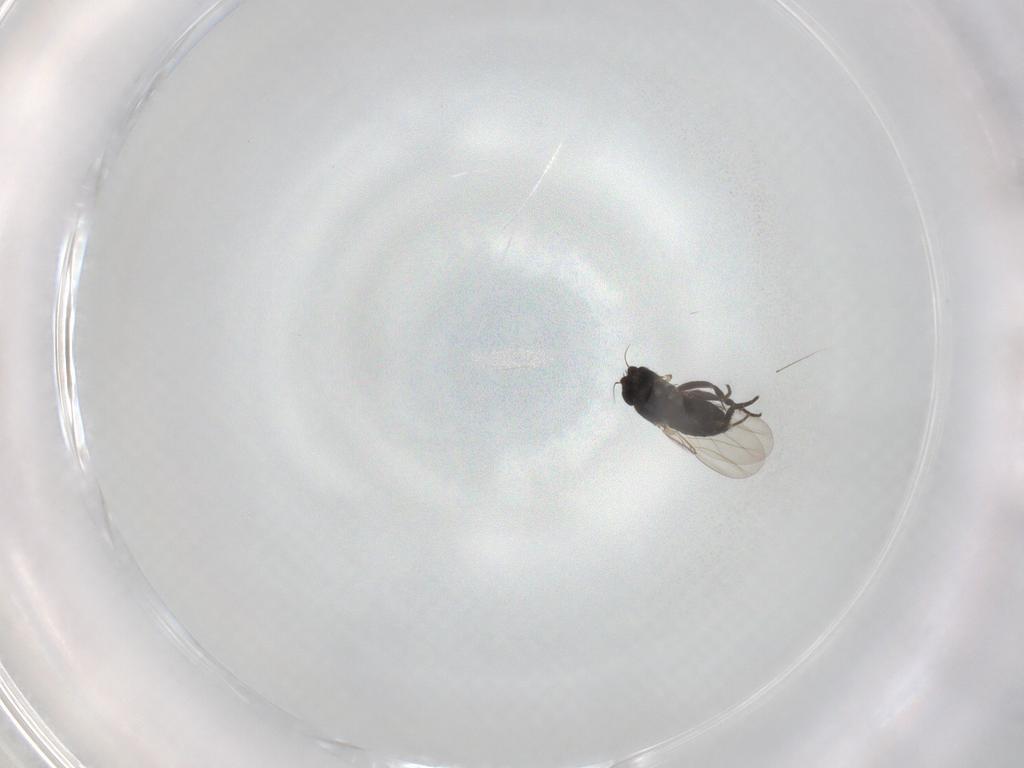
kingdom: Animalia
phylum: Arthropoda
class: Insecta
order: Diptera
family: Phoridae
